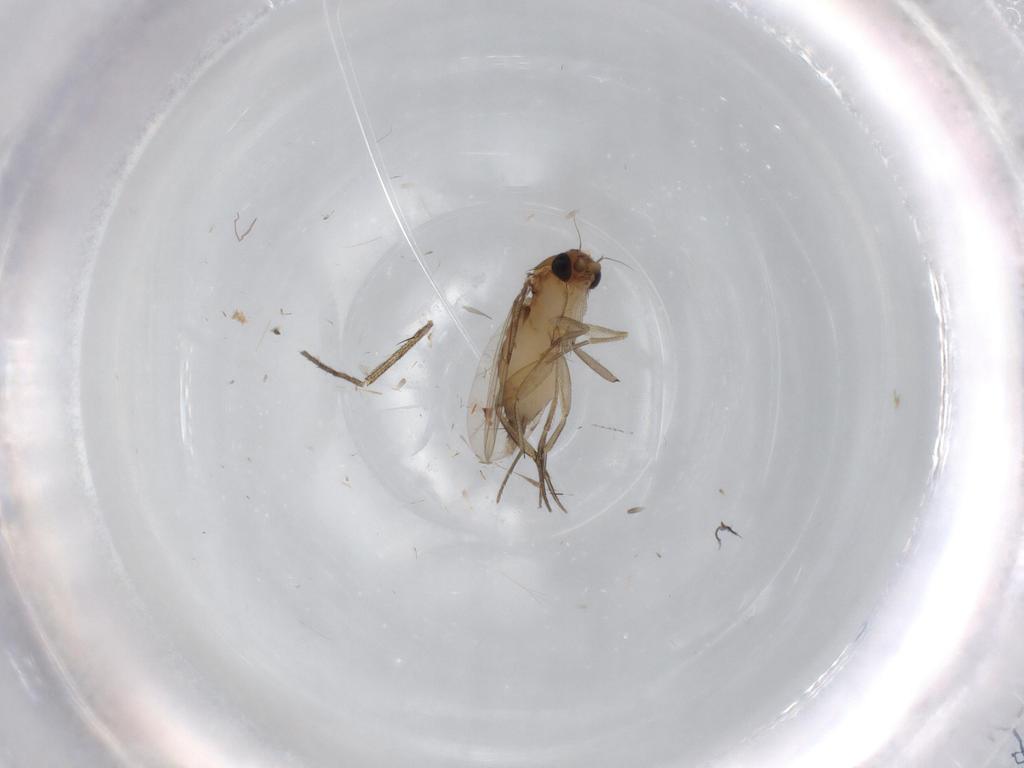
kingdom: Animalia
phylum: Arthropoda
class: Insecta
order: Diptera
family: Phoridae
